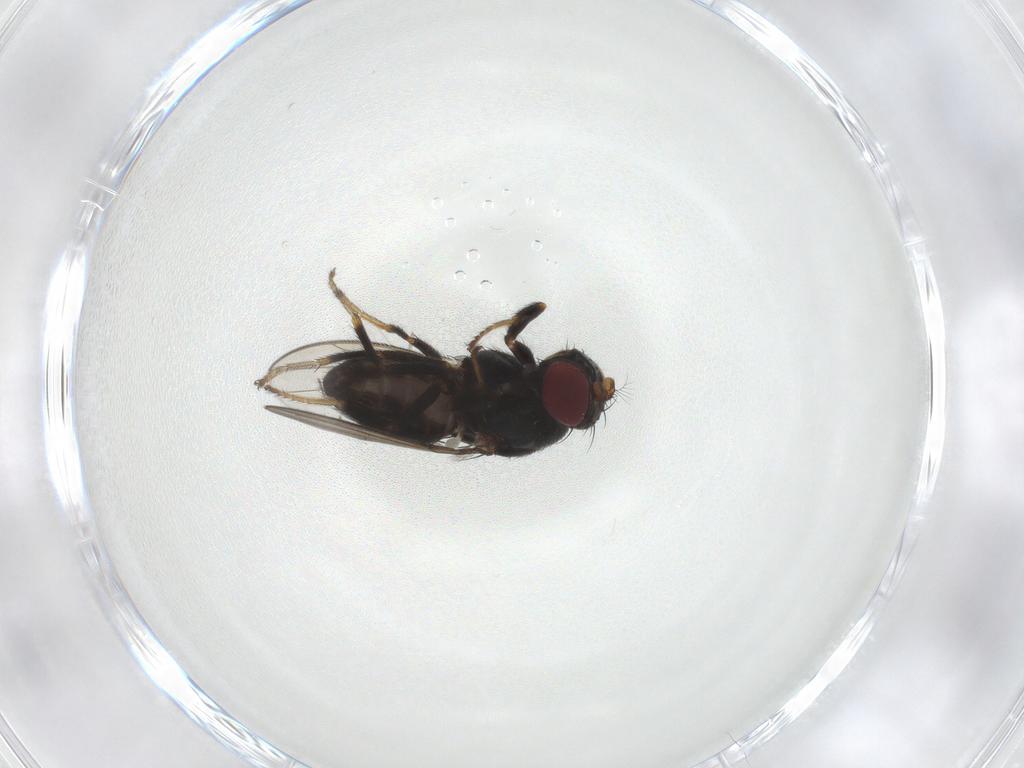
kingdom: Animalia
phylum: Arthropoda
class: Insecta
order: Diptera
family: Ephydridae
